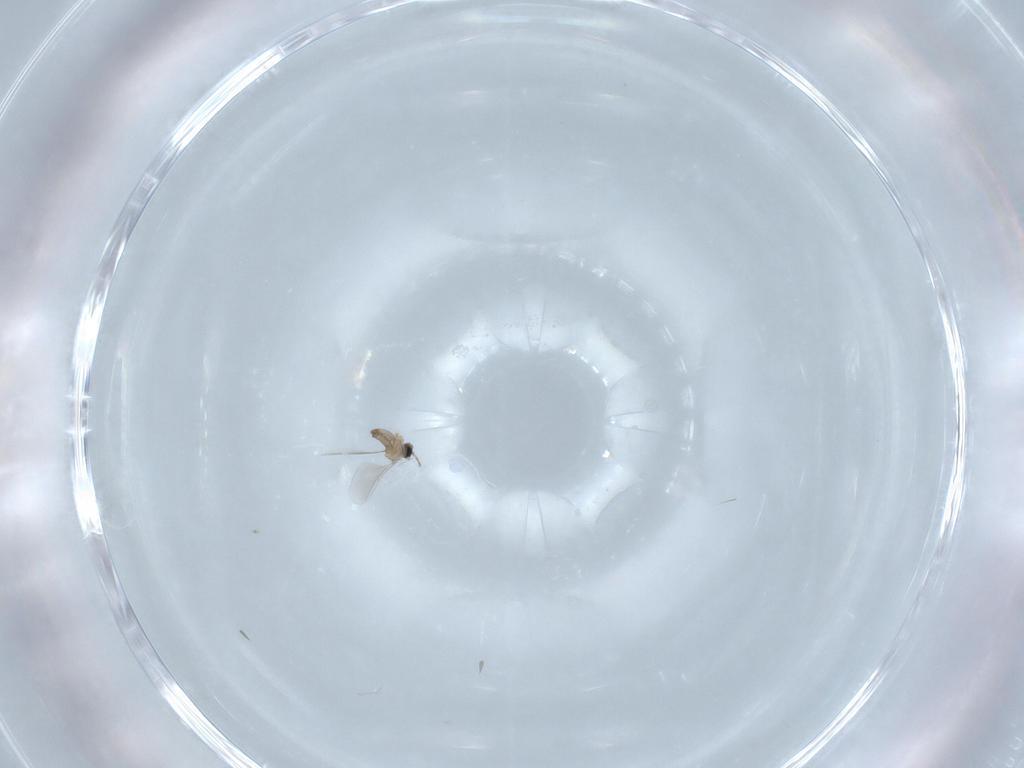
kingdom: Animalia
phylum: Arthropoda
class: Insecta
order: Diptera
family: Cecidomyiidae
